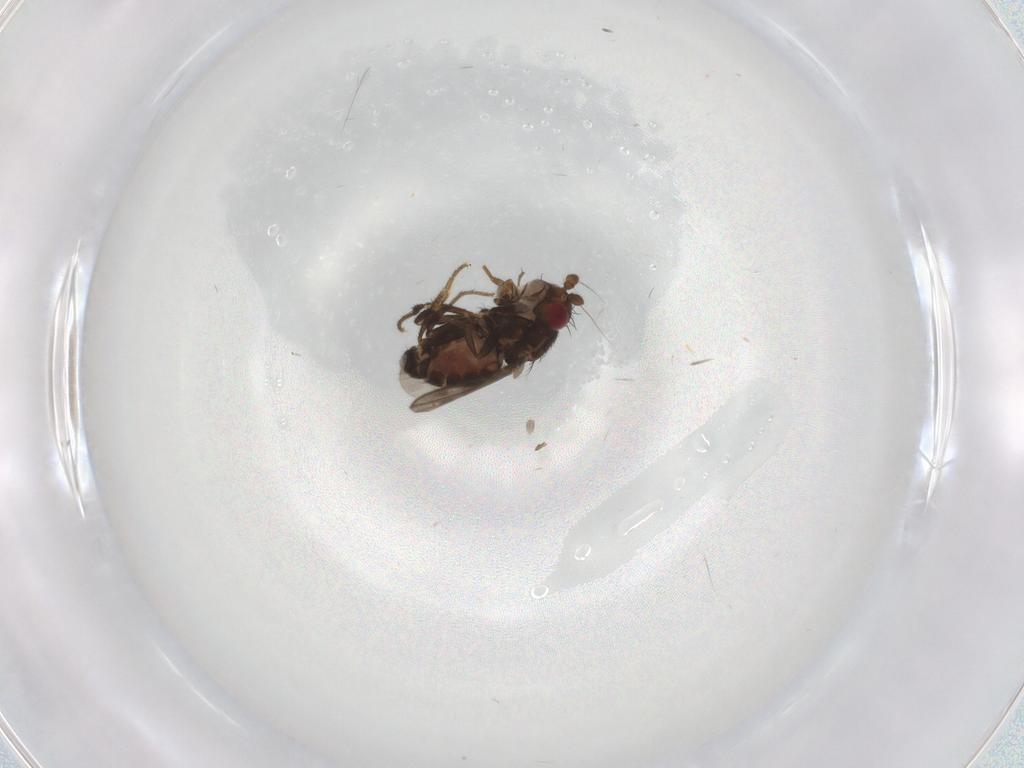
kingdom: Animalia
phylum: Arthropoda
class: Insecta
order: Diptera
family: Sphaeroceridae
